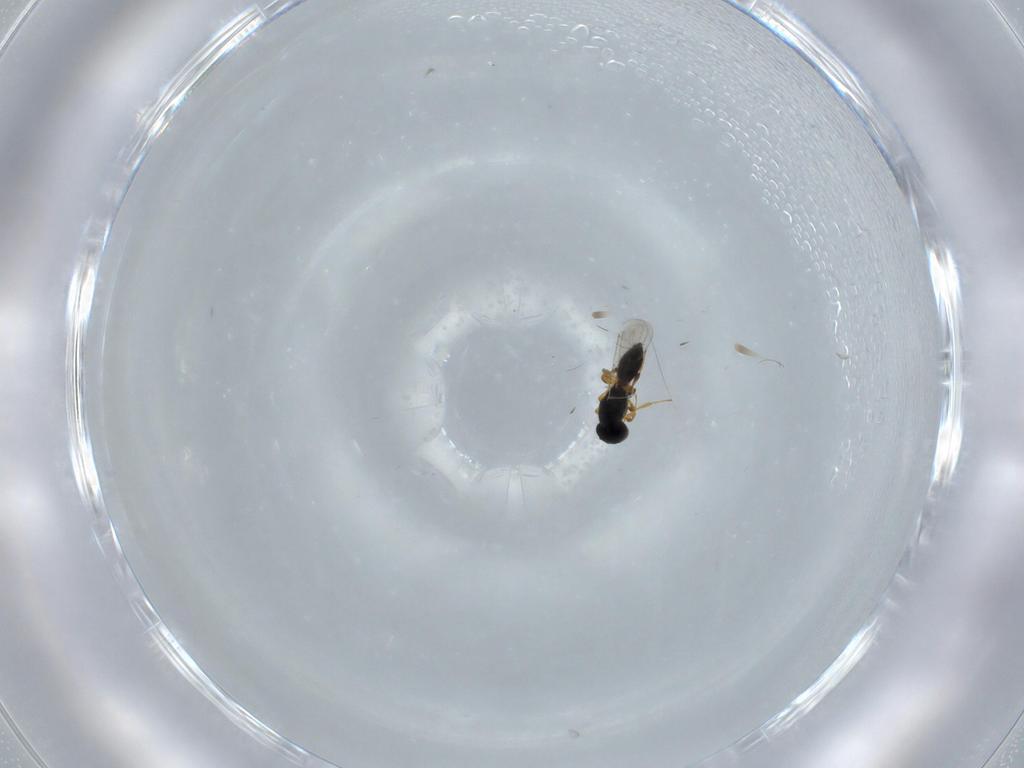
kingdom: Animalia
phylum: Arthropoda
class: Insecta
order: Hymenoptera
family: Platygastridae
